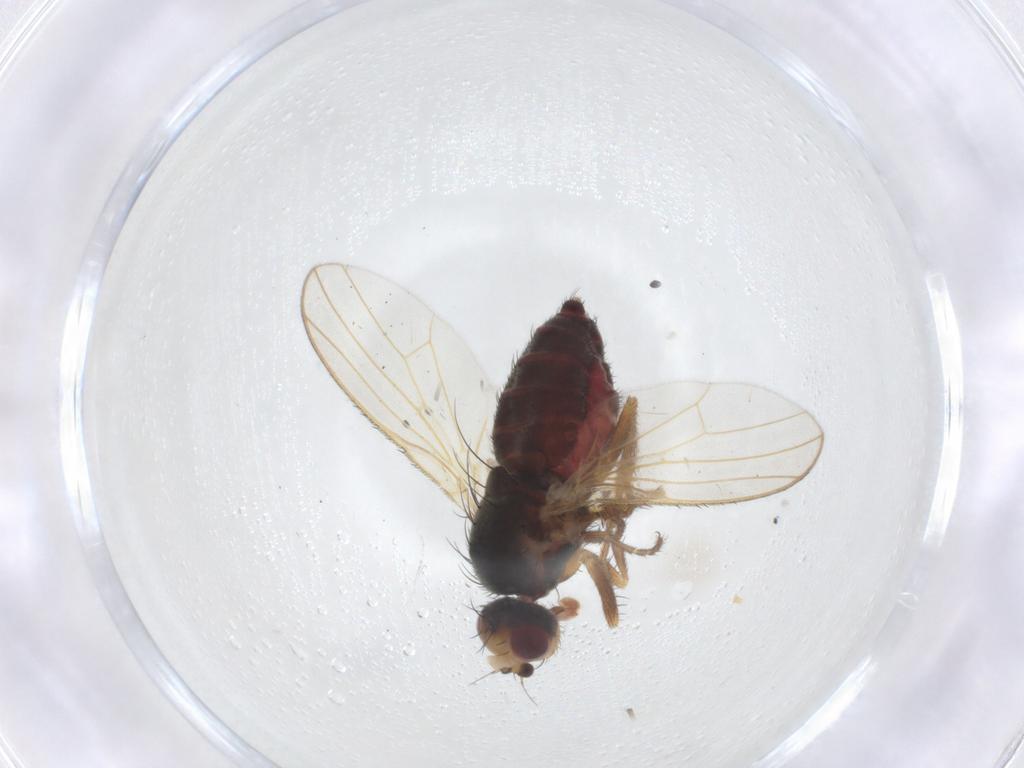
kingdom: Animalia
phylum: Arthropoda
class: Insecta
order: Diptera
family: Heleomyzidae
